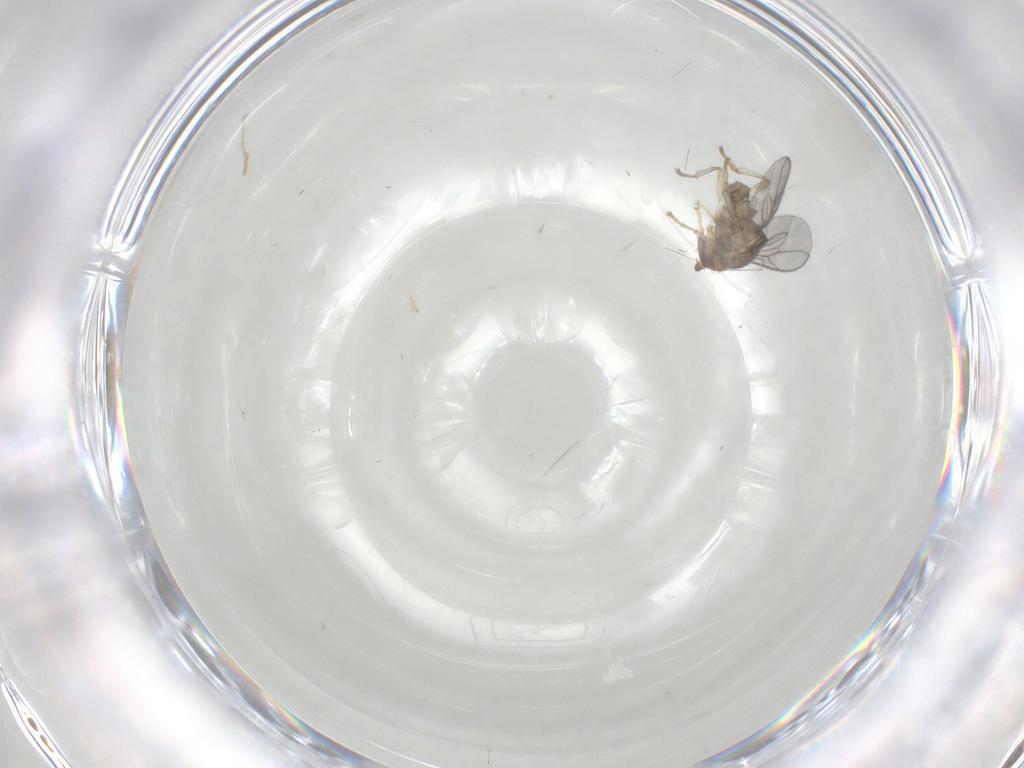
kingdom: Animalia
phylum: Arthropoda
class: Insecta
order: Diptera
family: Sphaeroceridae
